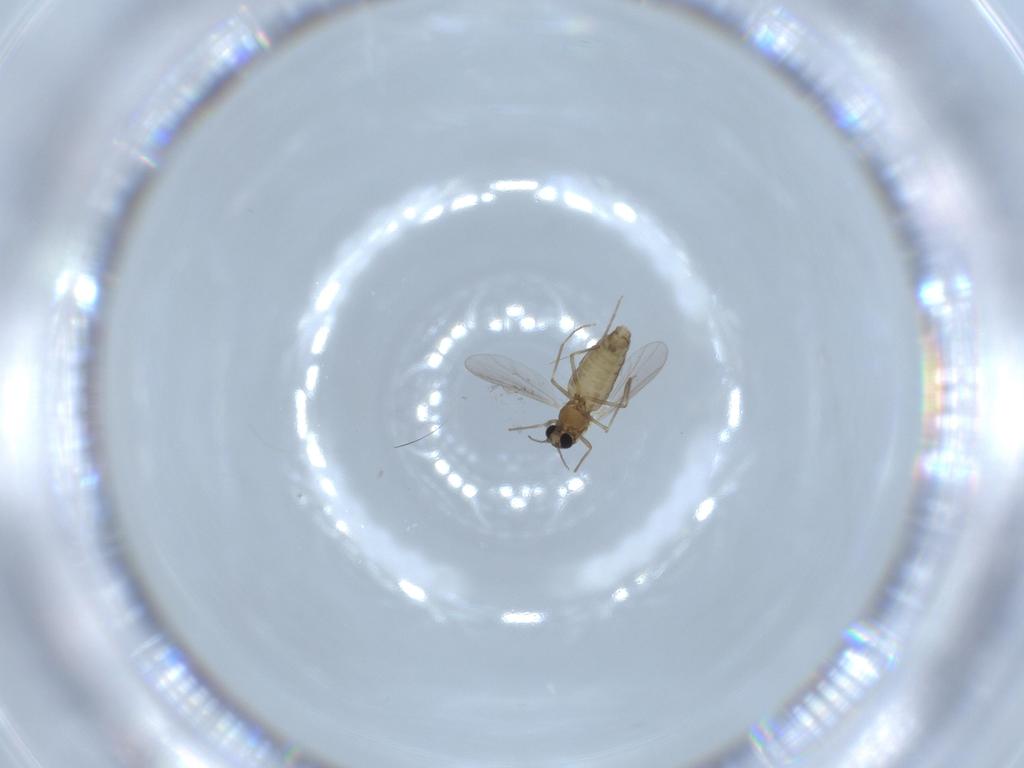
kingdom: Animalia
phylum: Arthropoda
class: Insecta
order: Diptera
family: Chironomidae
